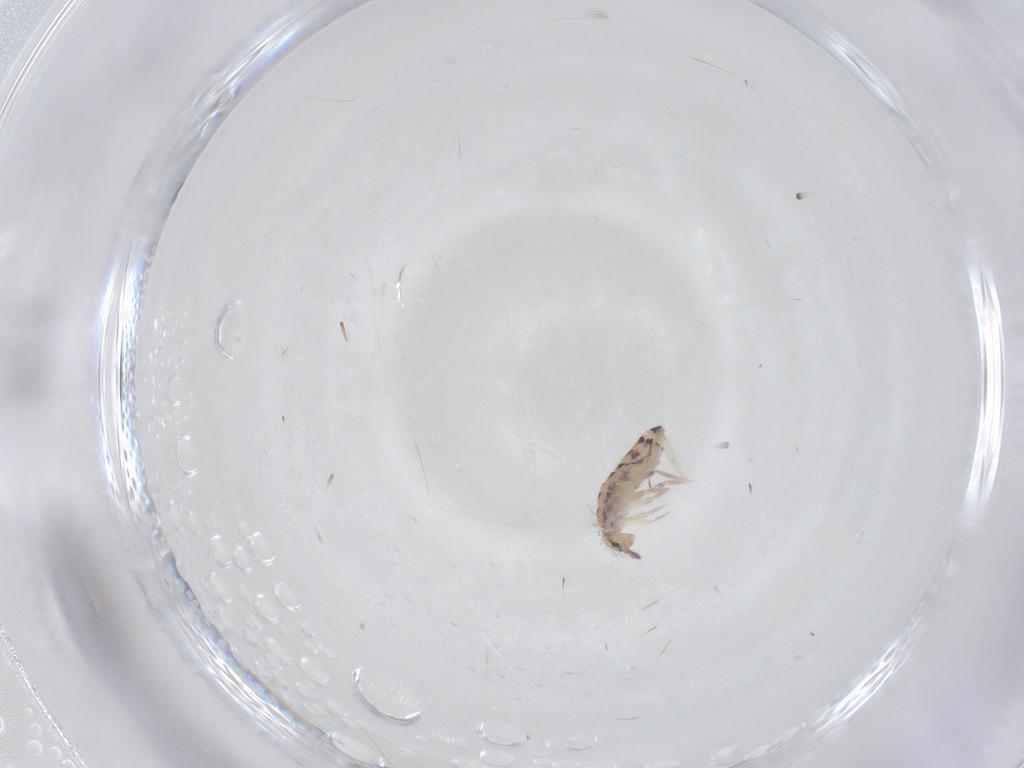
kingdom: Animalia
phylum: Arthropoda
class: Collembola
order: Entomobryomorpha
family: Entomobryidae
